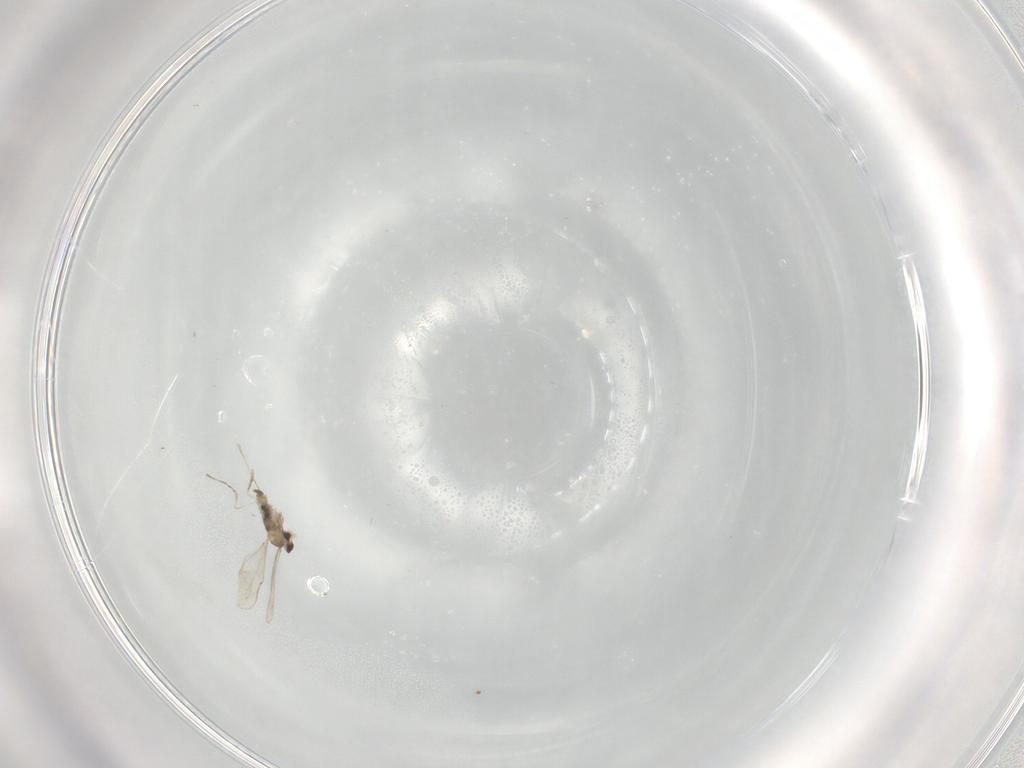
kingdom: Animalia
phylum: Arthropoda
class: Insecta
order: Diptera
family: Cecidomyiidae
